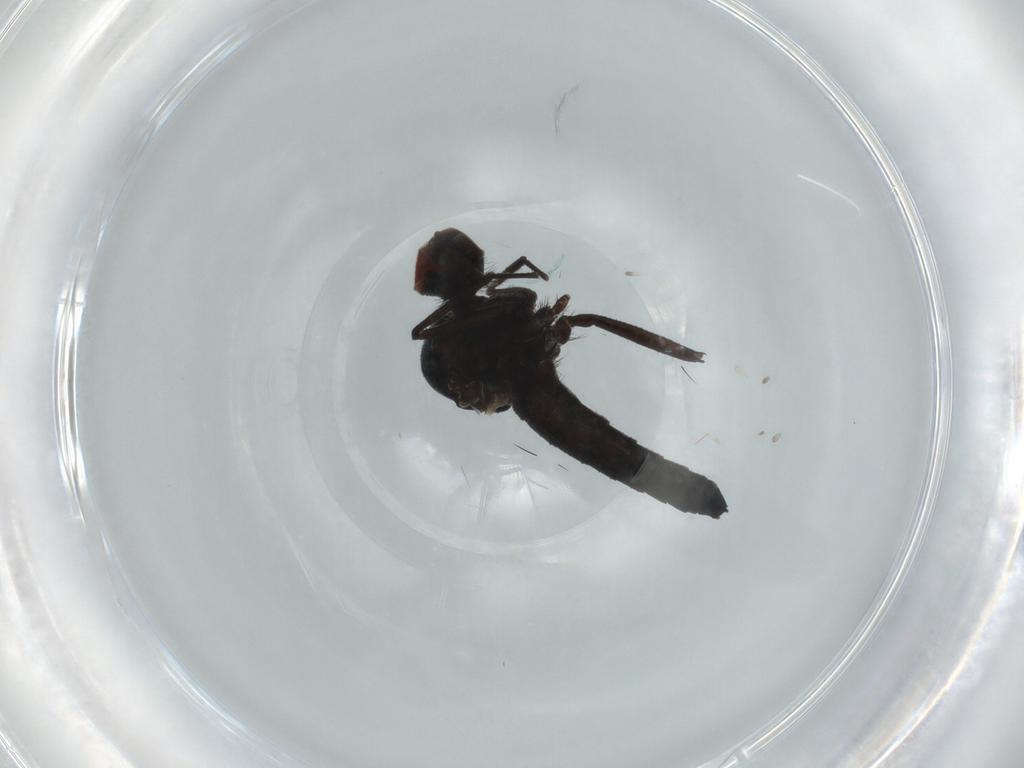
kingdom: Animalia
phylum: Arthropoda
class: Insecta
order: Diptera
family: Hybotidae
